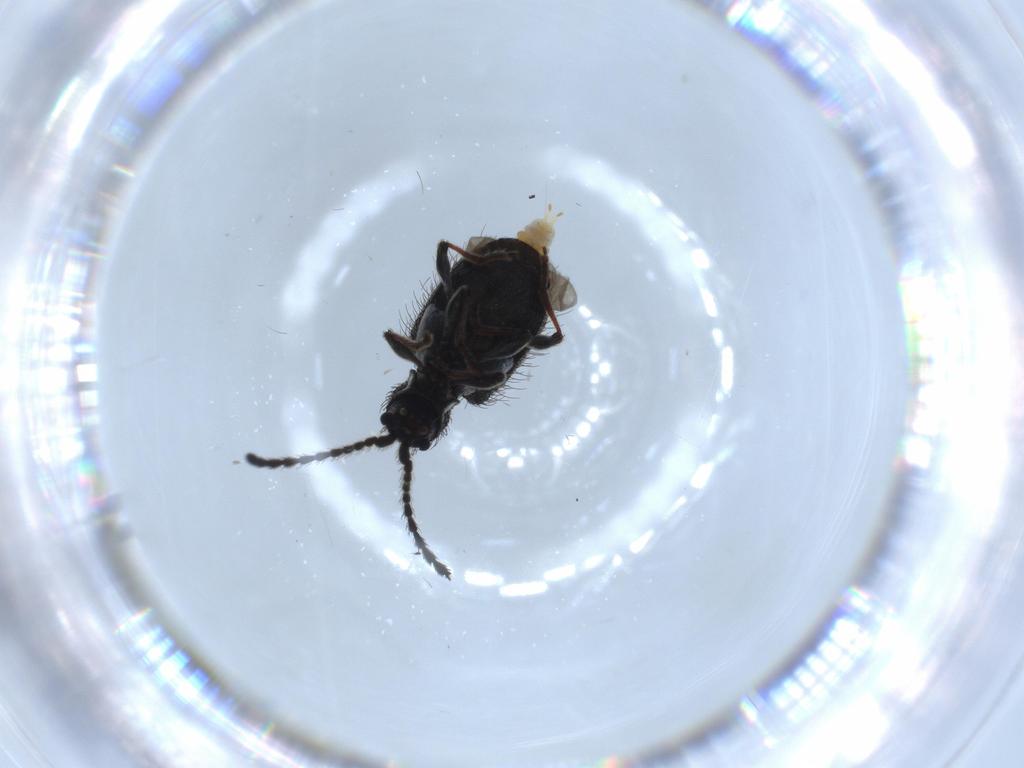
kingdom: Animalia
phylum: Arthropoda
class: Insecta
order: Coleoptera
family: Ptinidae
